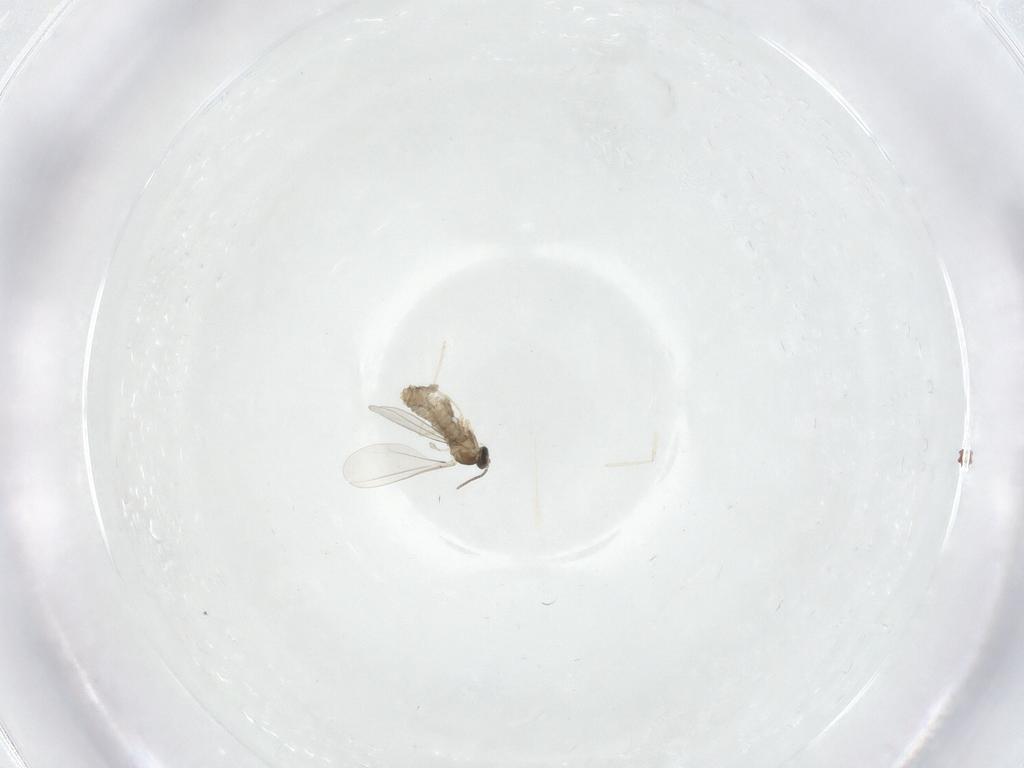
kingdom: Animalia
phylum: Arthropoda
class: Insecta
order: Diptera
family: Cecidomyiidae
